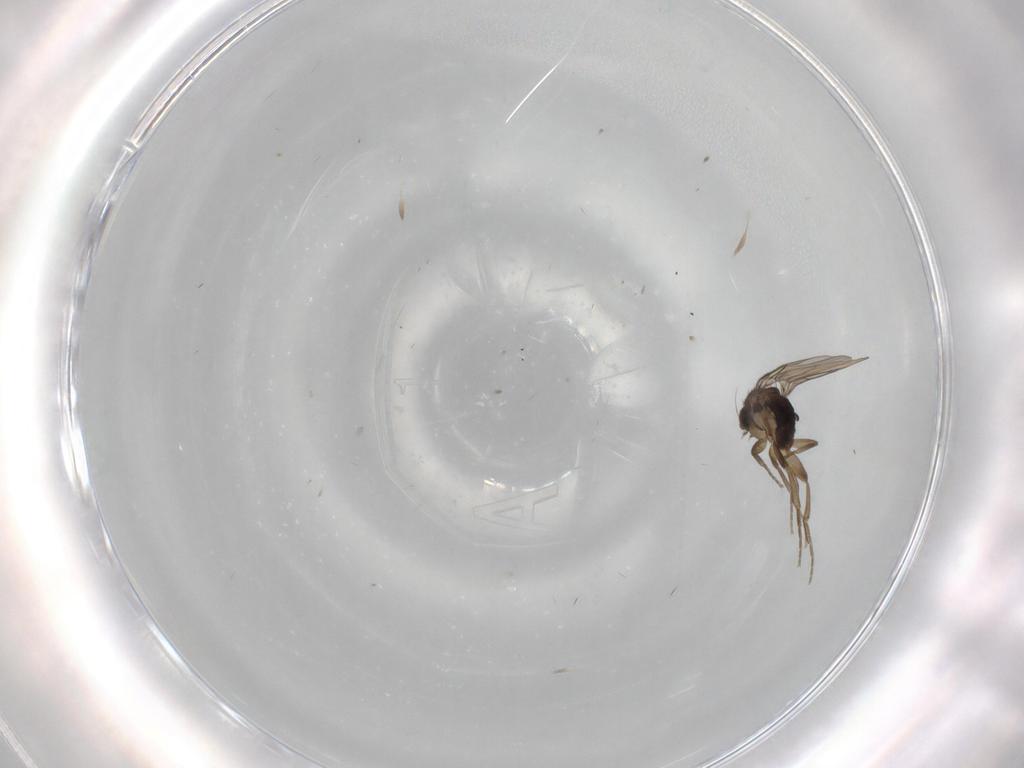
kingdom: Animalia
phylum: Arthropoda
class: Insecta
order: Diptera
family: Phoridae
